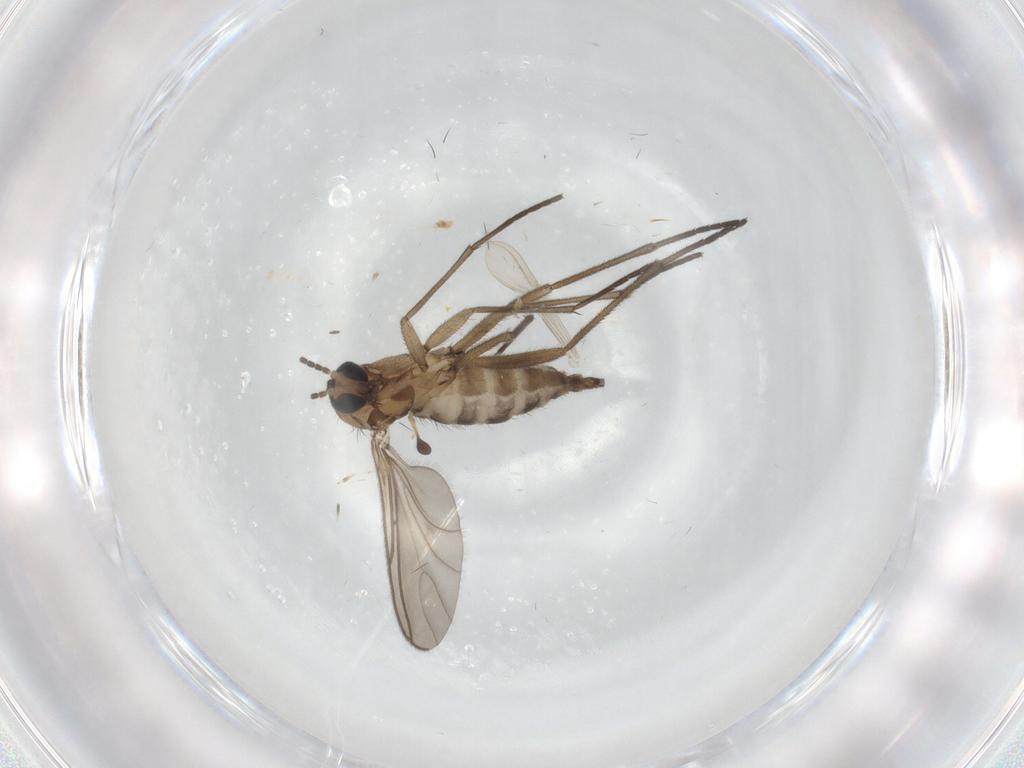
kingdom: Animalia
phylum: Arthropoda
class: Insecta
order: Diptera
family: Sciaridae
